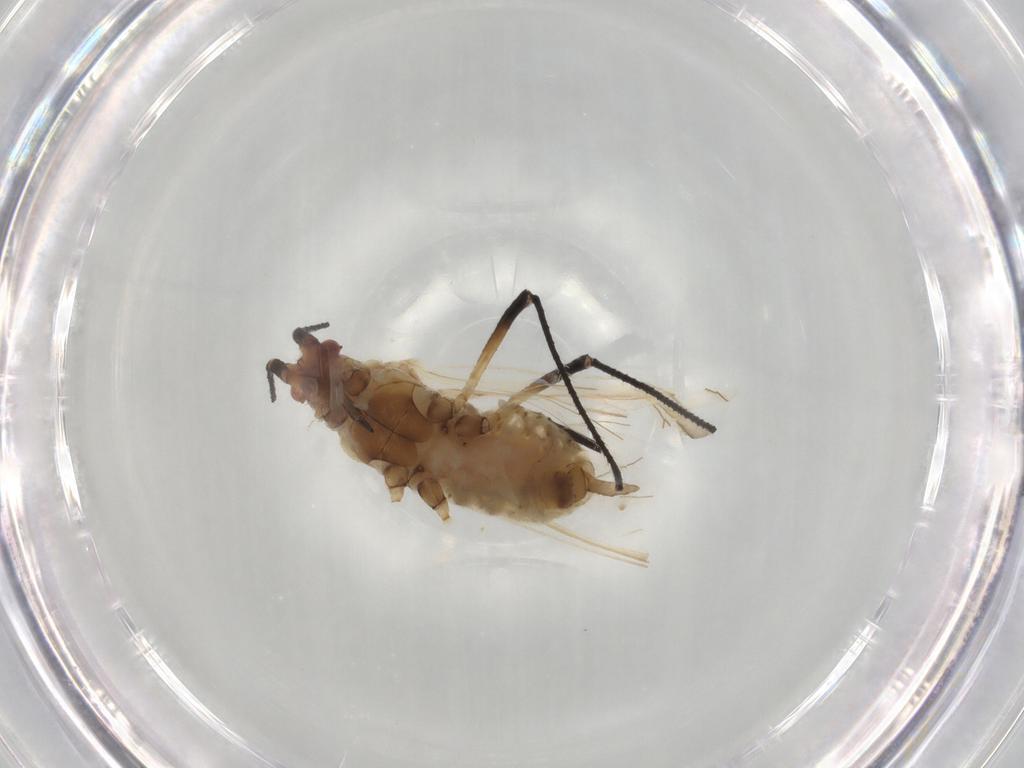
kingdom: Animalia
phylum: Arthropoda
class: Insecta
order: Hemiptera
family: Aphididae
